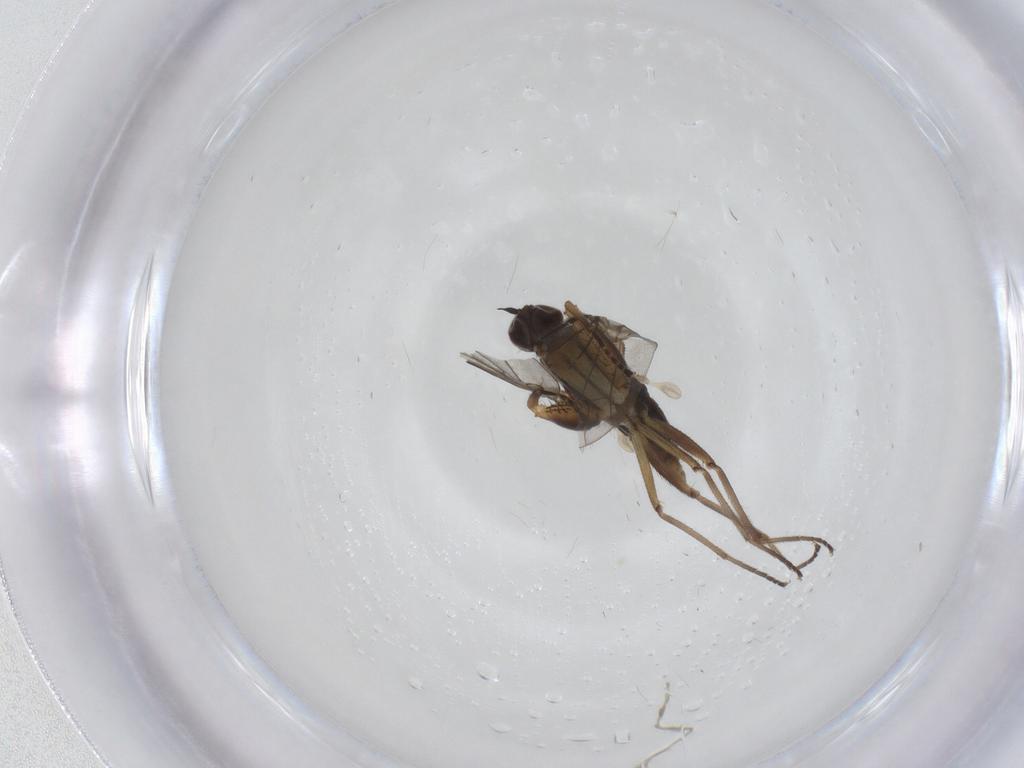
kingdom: Animalia
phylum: Arthropoda
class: Insecta
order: Diptera
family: Empididae
